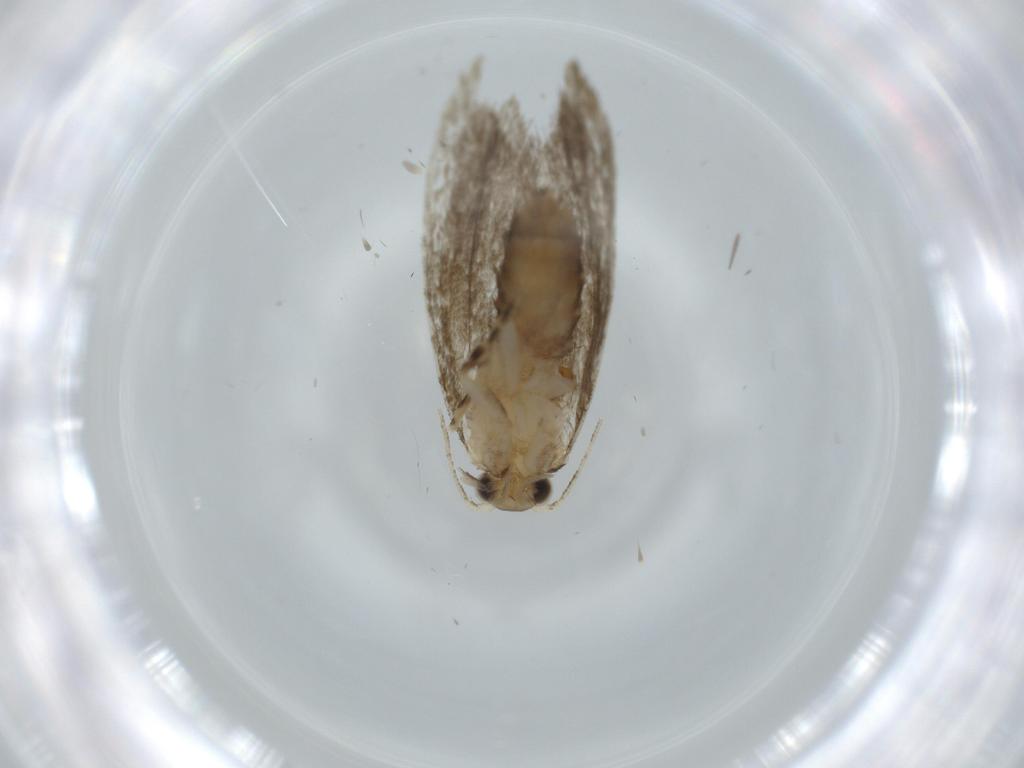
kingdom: Animalia
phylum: Arthropoda
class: Insecta
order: Lepidoptera
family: Tineidae
